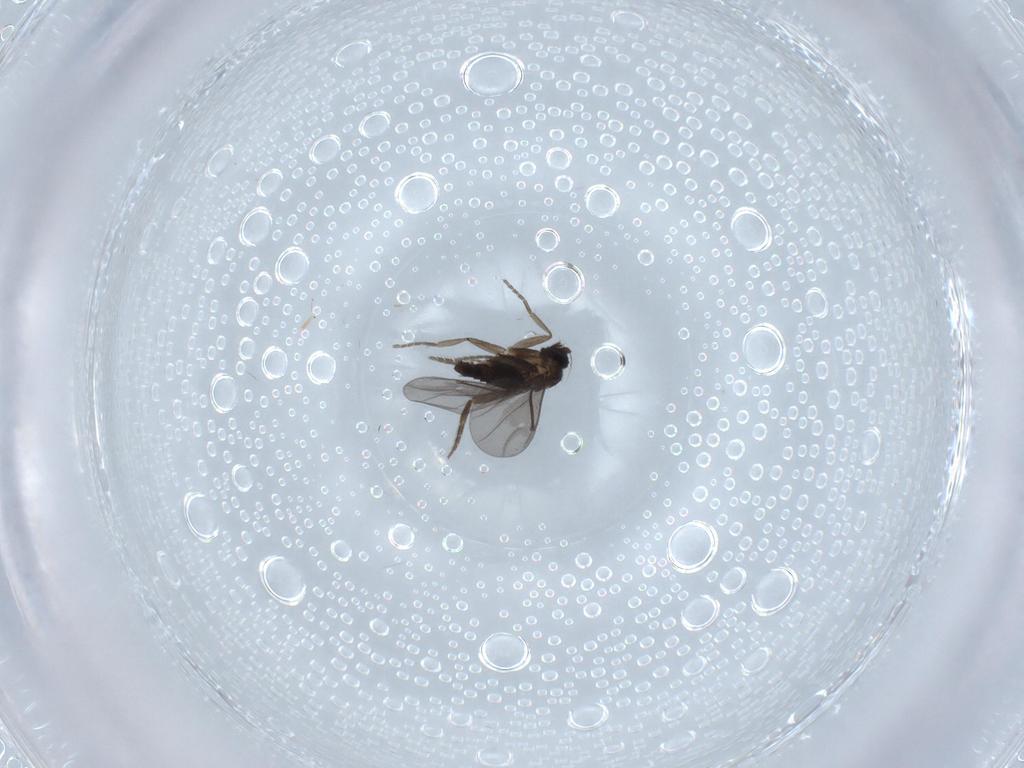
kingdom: Animalia
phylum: Arthropoda
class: Insecta
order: Diptera
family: Phoridae
